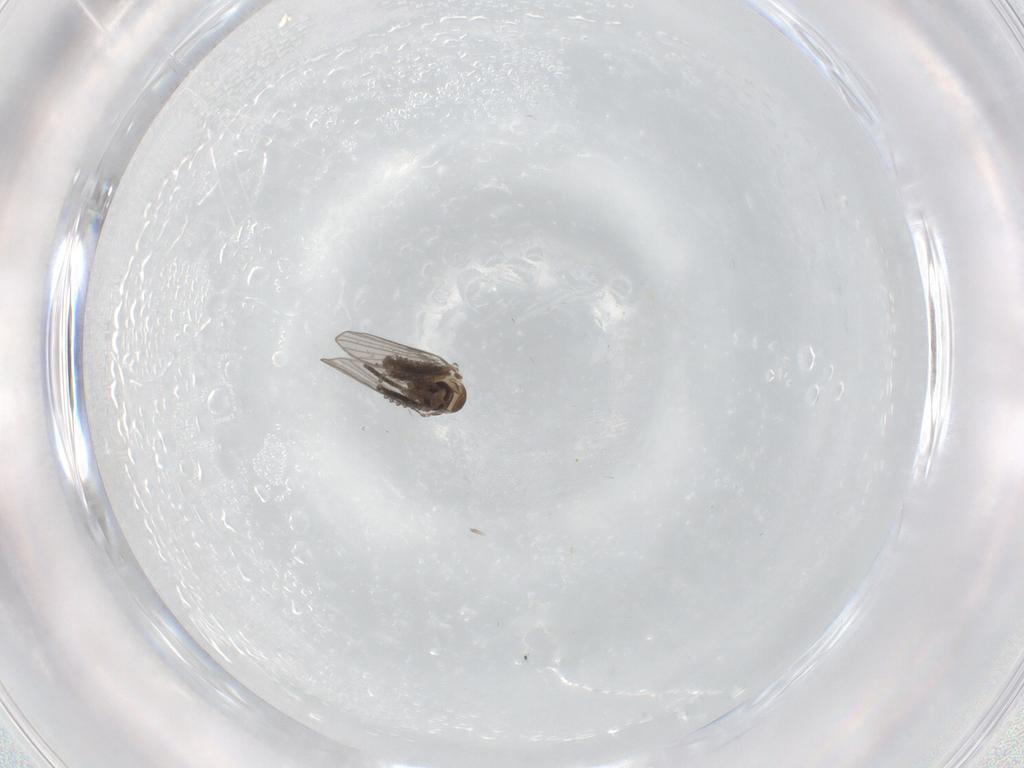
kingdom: Animalia
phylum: Arthropoda
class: Insecta
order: Diptera
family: Psychodidae
